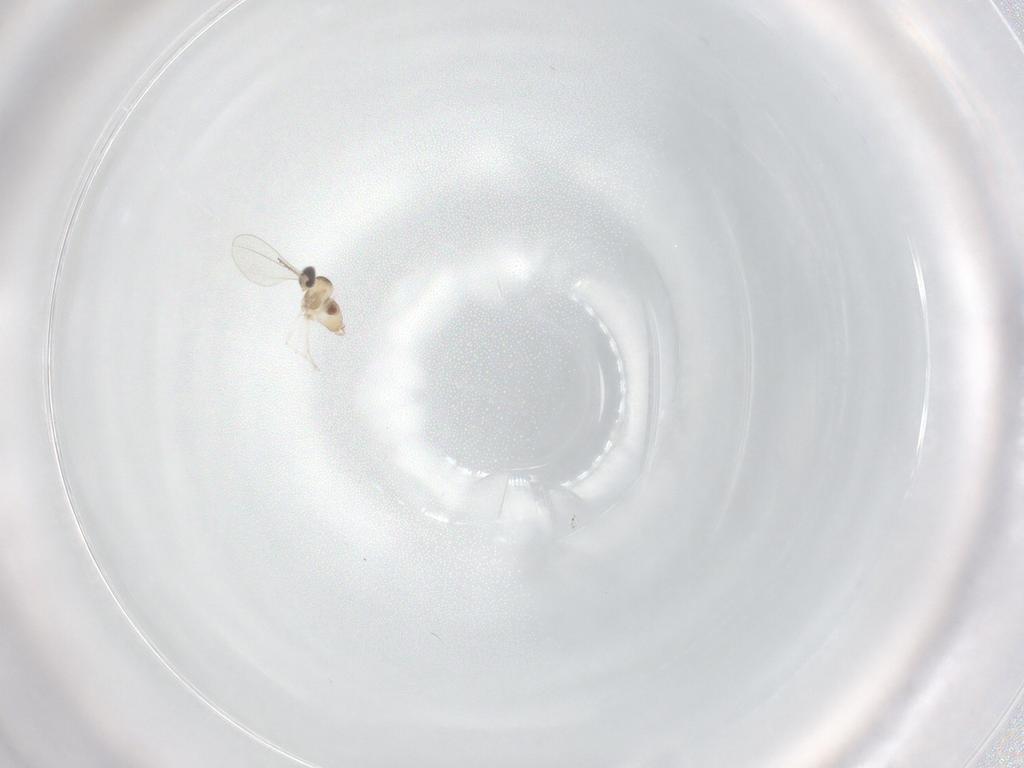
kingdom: Animalia
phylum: Arthropoda
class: Insecta
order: Diptera
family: Cecidomyiidae
